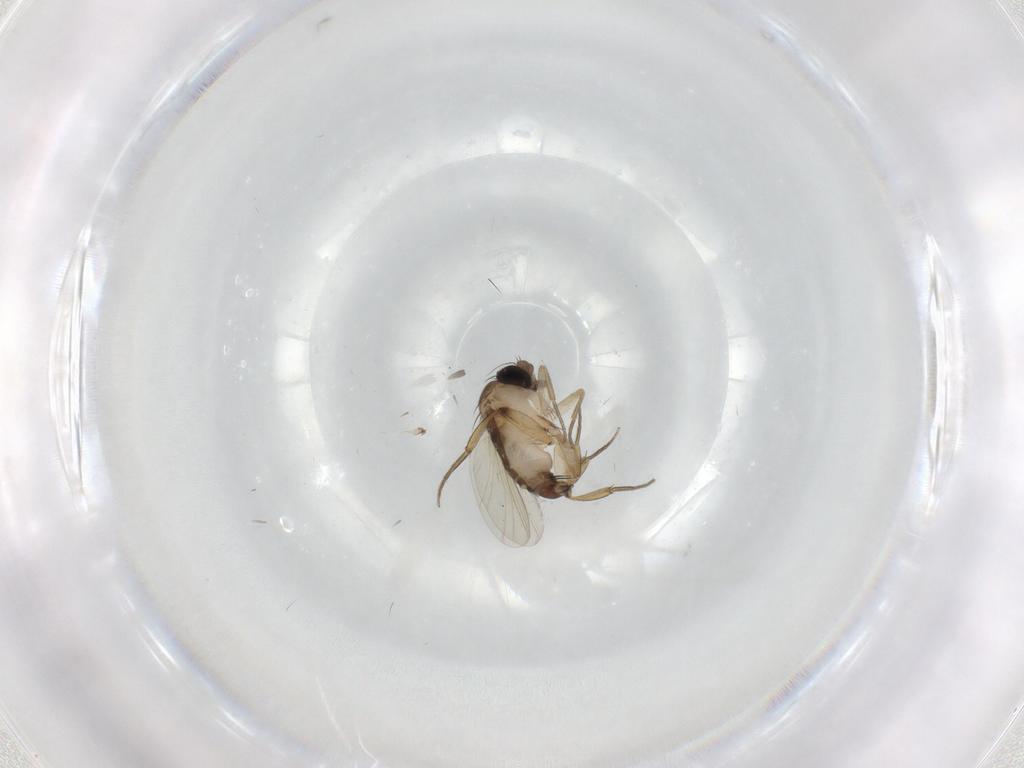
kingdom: Animalia
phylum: Arthropoda
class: Insecta
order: Diptera
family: Phoridae
